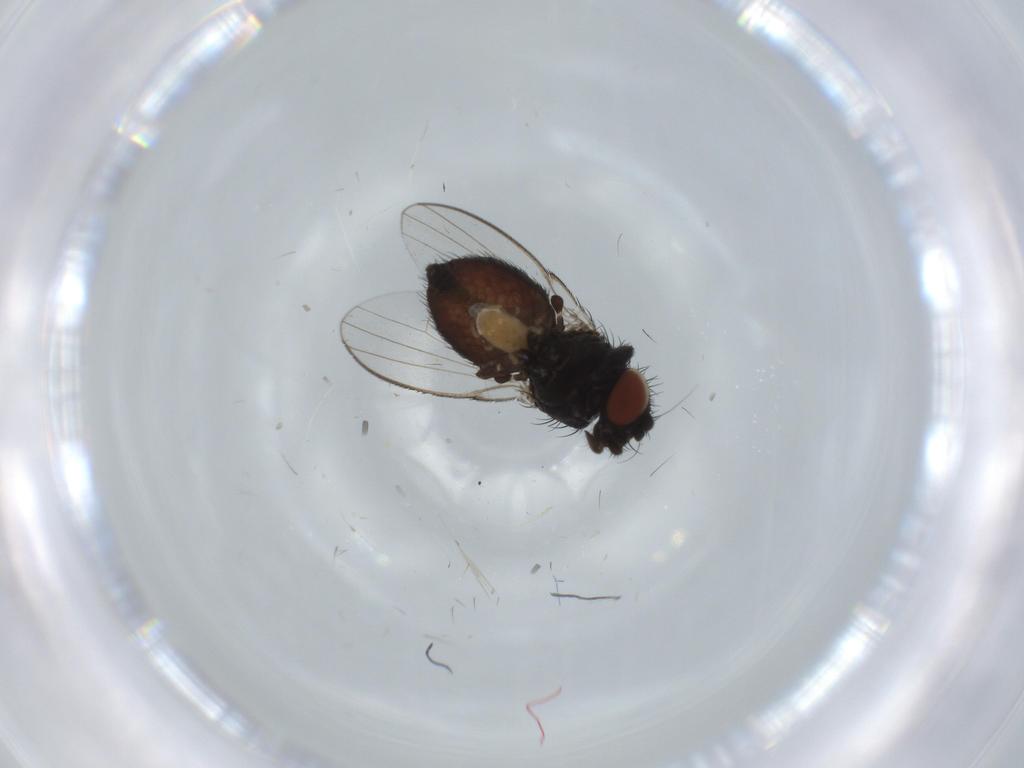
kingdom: Animalia
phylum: Arthropoda
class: Insecta
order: Diptera
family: Milichiidae
